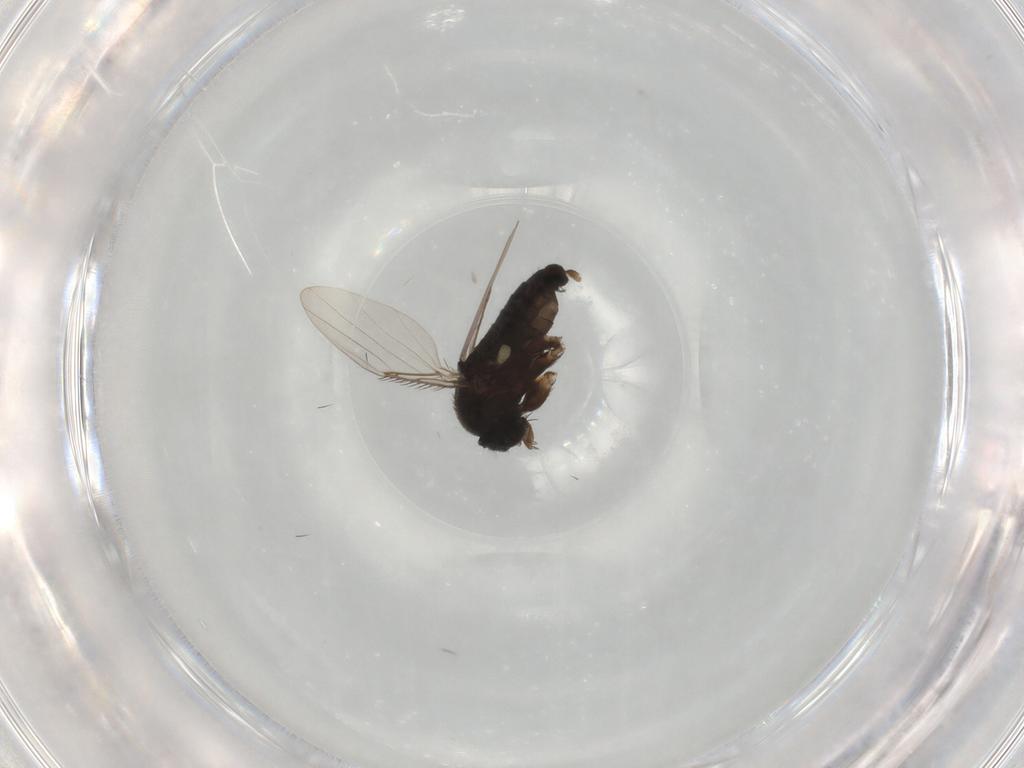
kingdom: Animalia
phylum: Arthropoda
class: Insecta
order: Diptera
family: Phoridae
